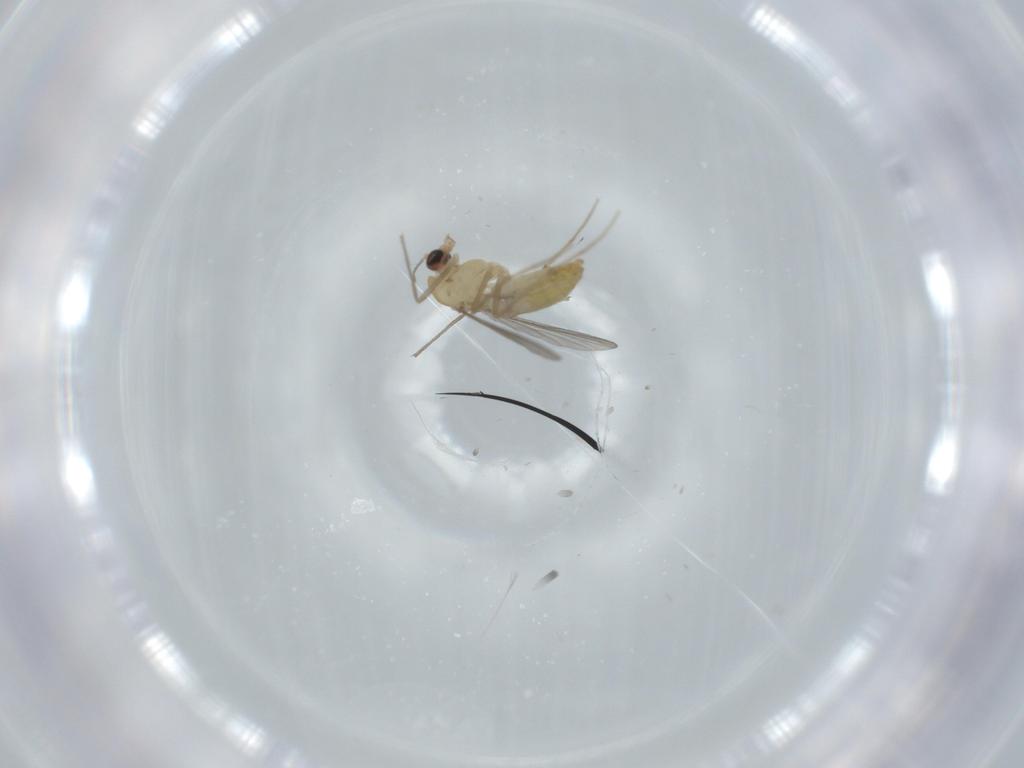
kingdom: Animalia
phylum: Arthropoda
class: Insecta
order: Diptera
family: Chironomidae
